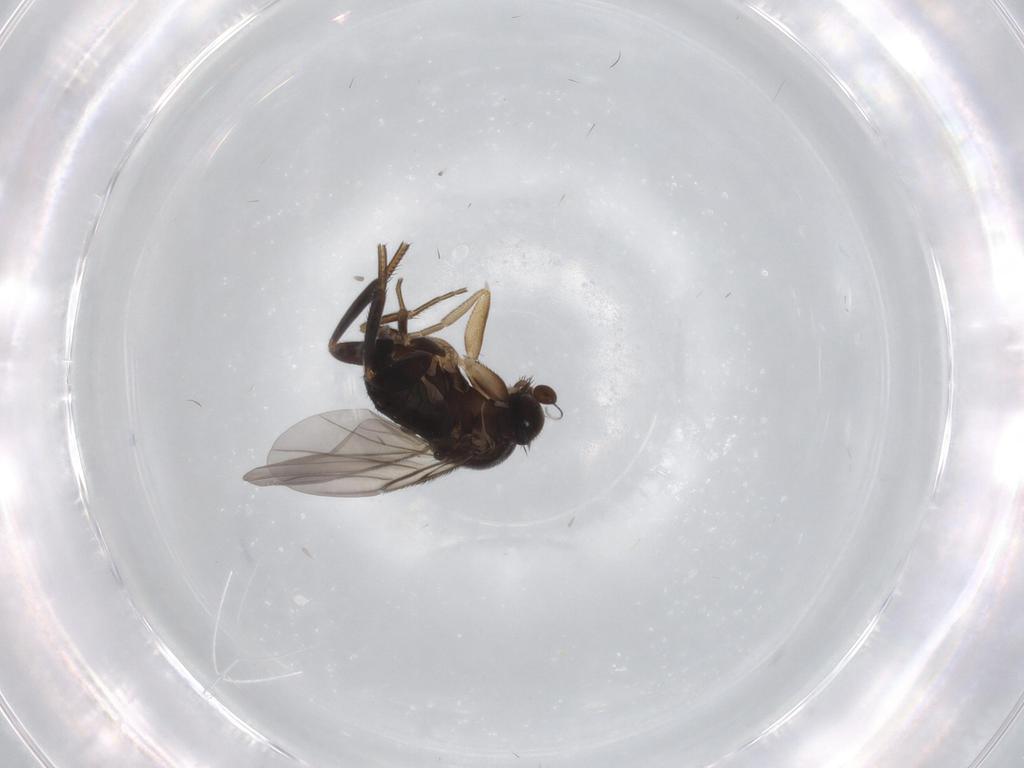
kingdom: Animalia
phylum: Arthropoda
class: Insecta
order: Diptera
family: Phoridae
